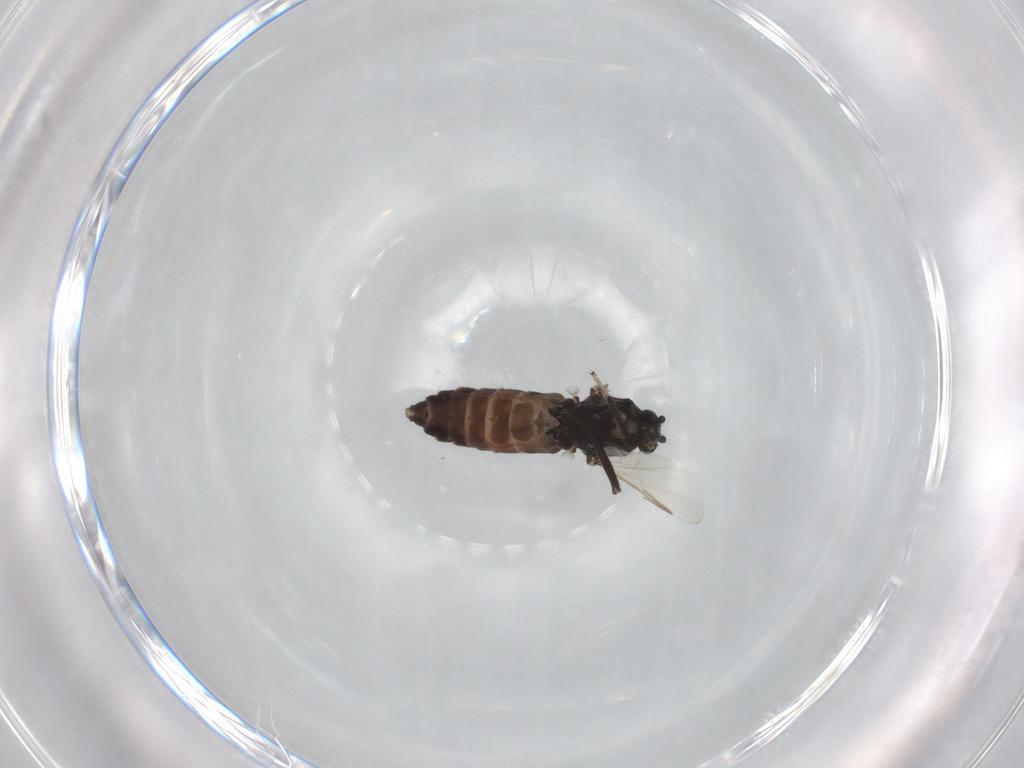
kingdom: Animalia
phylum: Arthropoda
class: Insecta
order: Diptera
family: Ceratopogonidae
